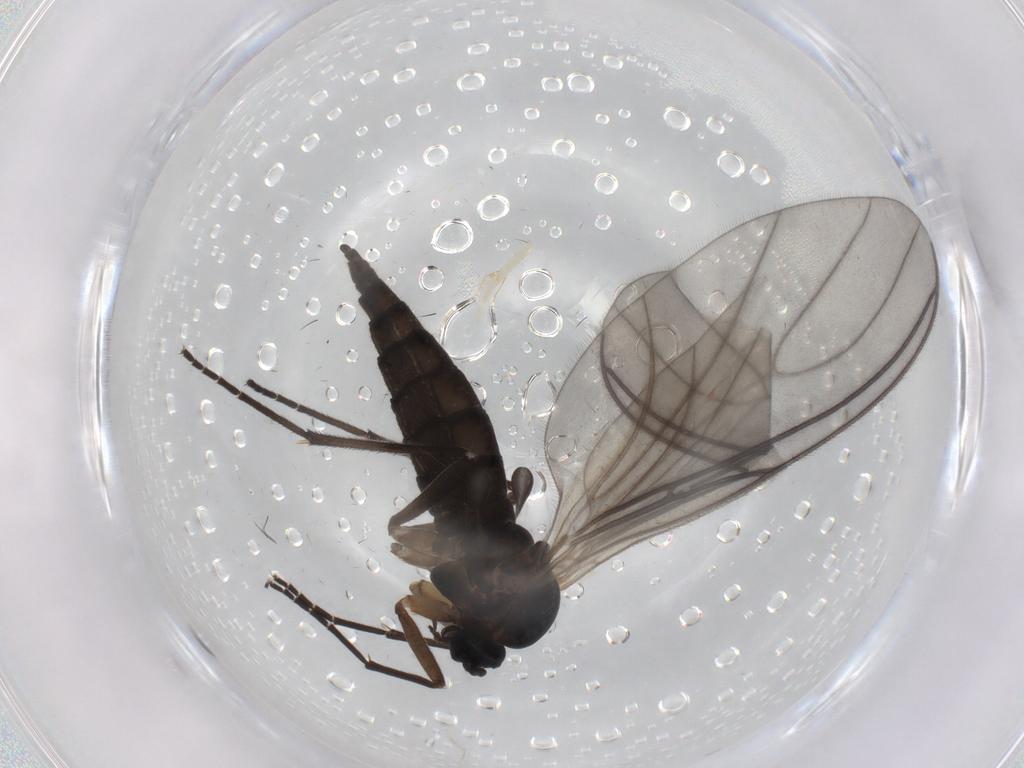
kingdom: Animalia
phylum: Arthropoda
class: Insecta
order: Diptera
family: Sciaridae
